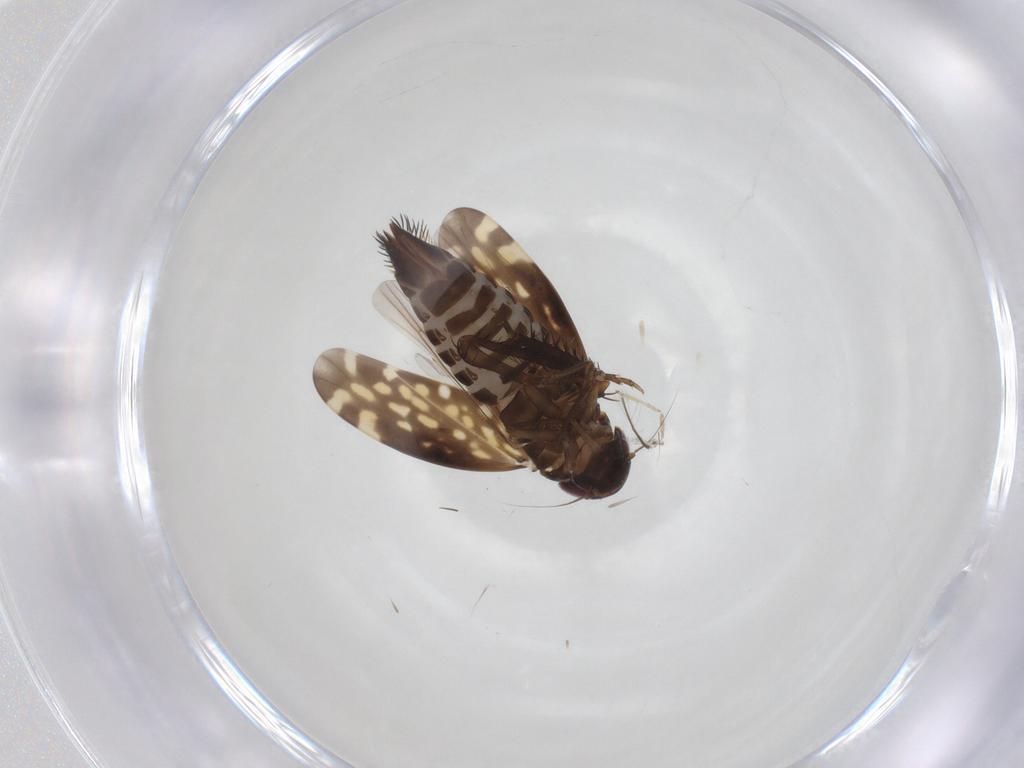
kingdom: Animalia
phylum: Arthropoda
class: Insecta
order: Hemiptera
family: Cicadellidae
